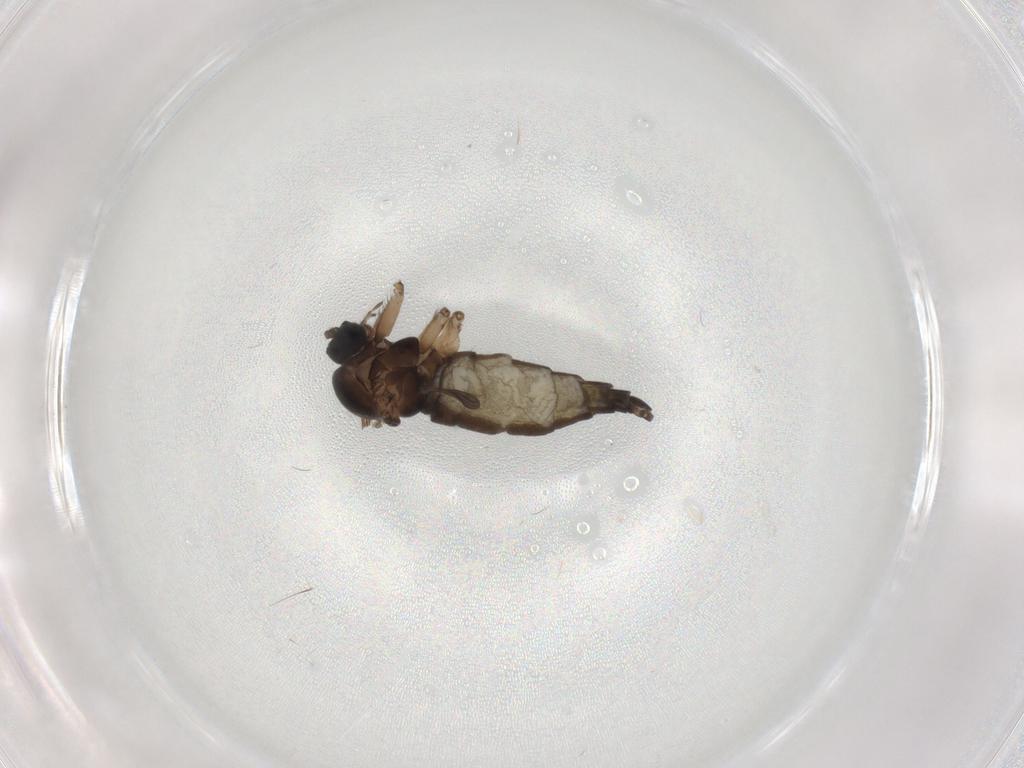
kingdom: Animalia
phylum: Arthropoda
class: Insecta
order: Diptera
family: Sciaridae
